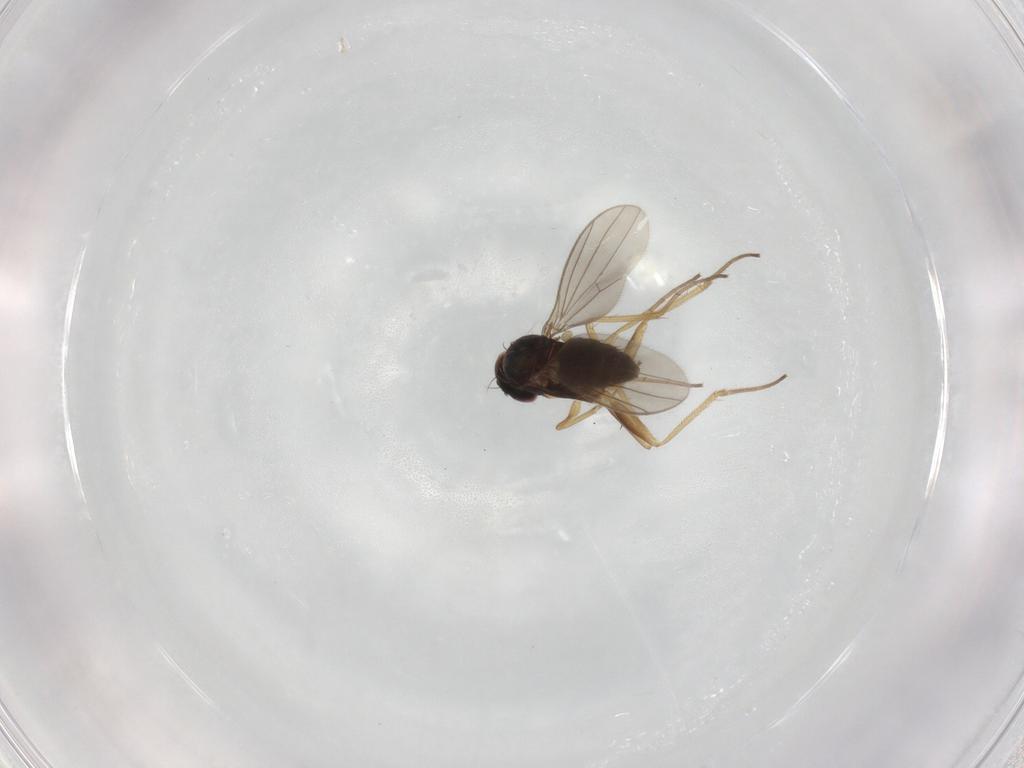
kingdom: Animalia
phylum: Arthropoda
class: Insecta
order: Diptera
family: Dolichopodidae
